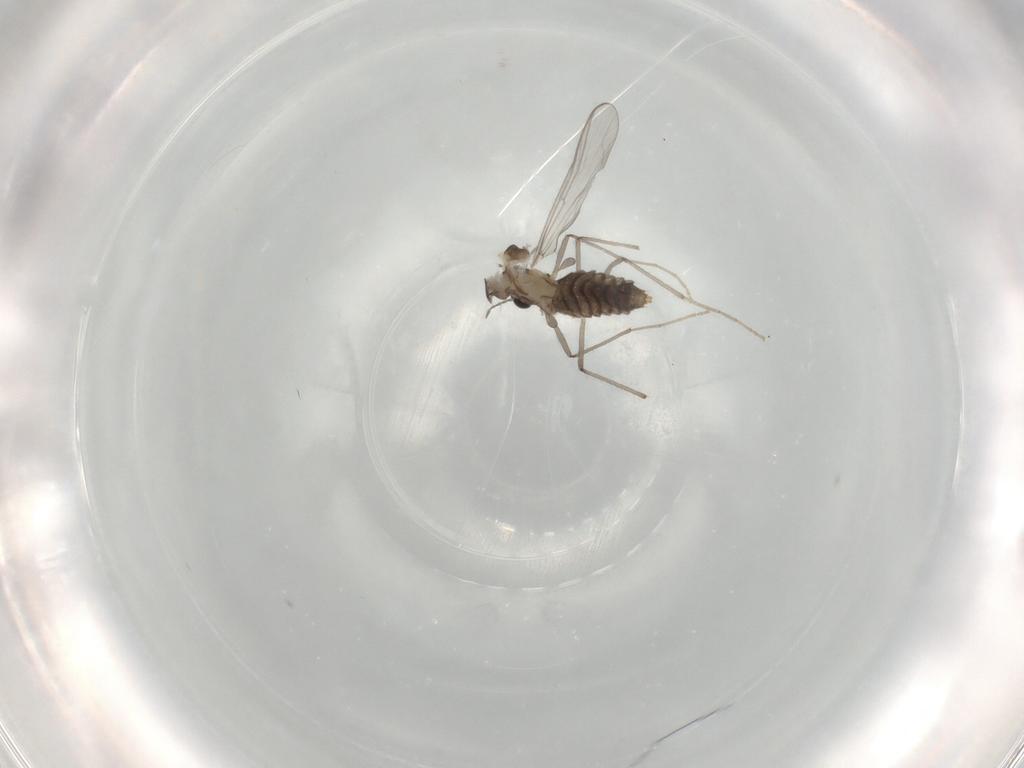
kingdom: Animalia
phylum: Arthropoda
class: Insecta
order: Diptera
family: Chironomidae
